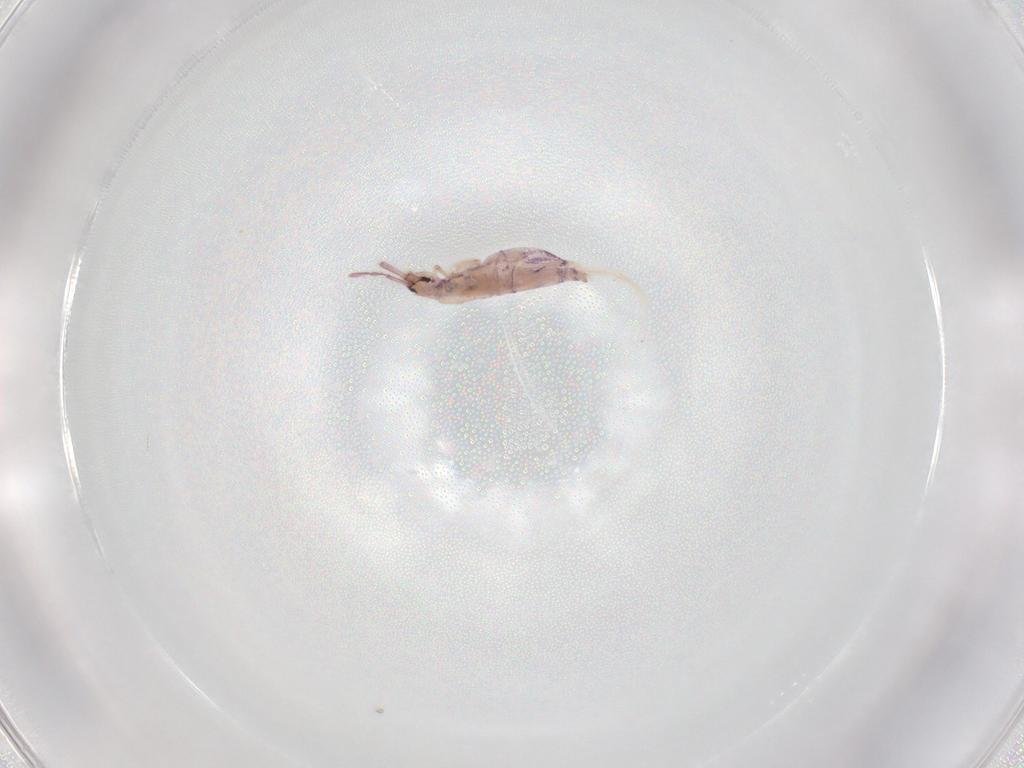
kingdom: Animalia
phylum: Arthropoda
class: Collembola
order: Entomobryomorpha
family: Entomobryidae
